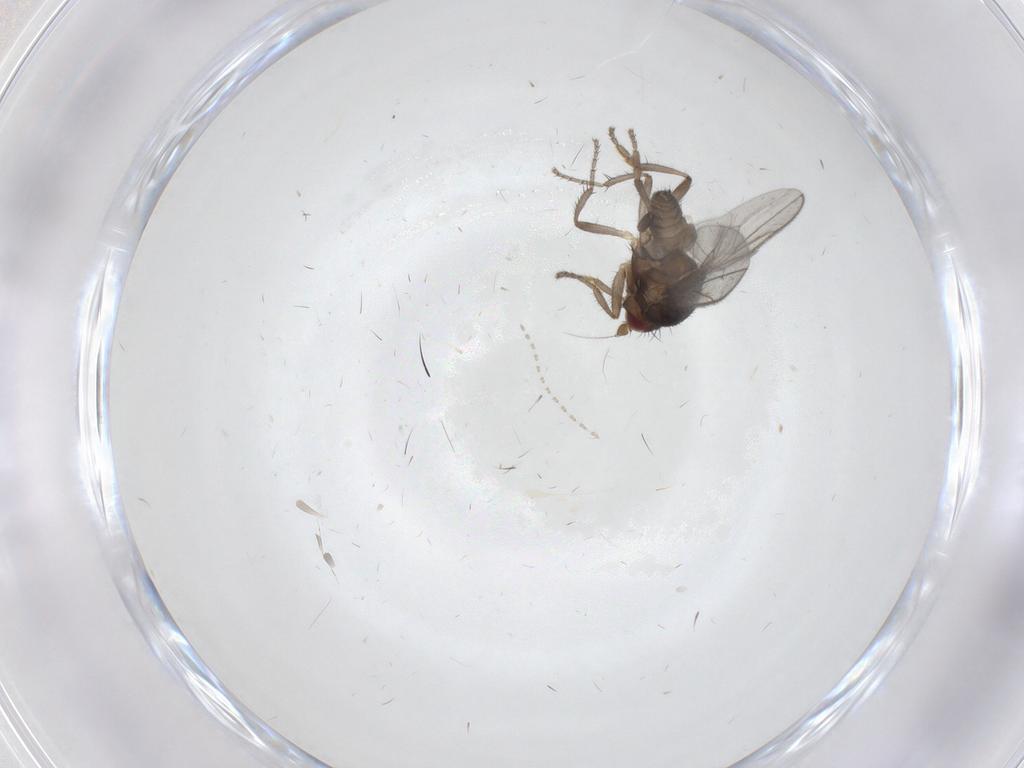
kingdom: Animalia
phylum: Arthropoda
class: Insecta
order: Diptera
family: Sphaeroceridae
